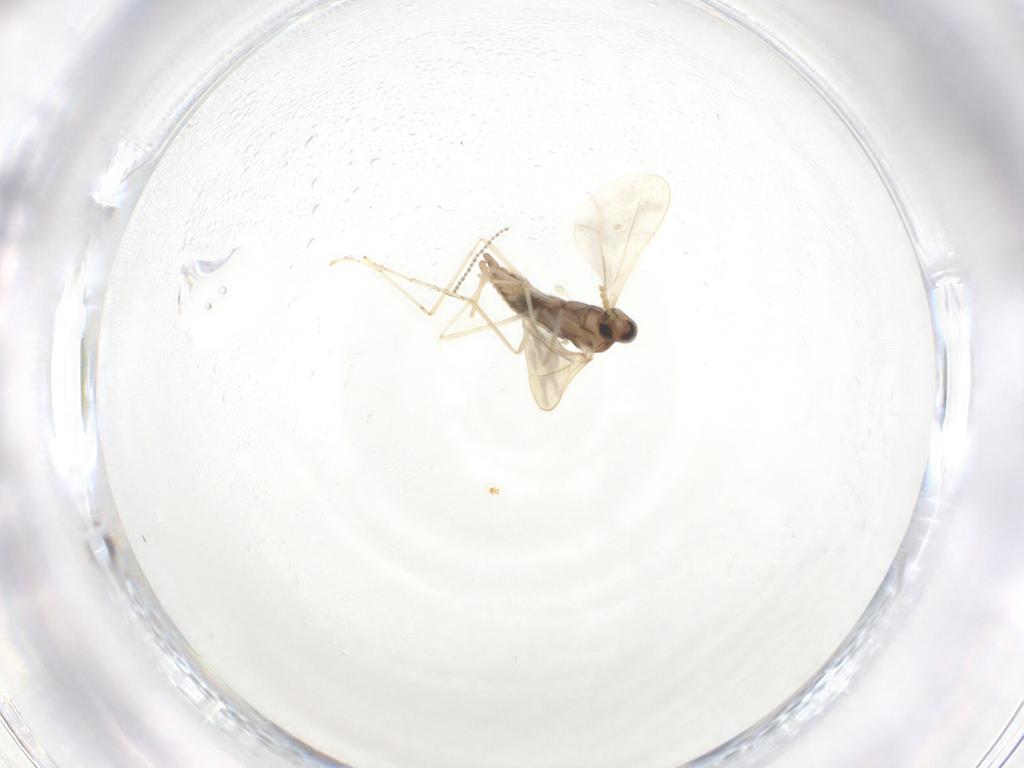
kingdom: Animalia
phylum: Arthropoda
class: Insecta
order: Diptera
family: Cecidomyiidae
